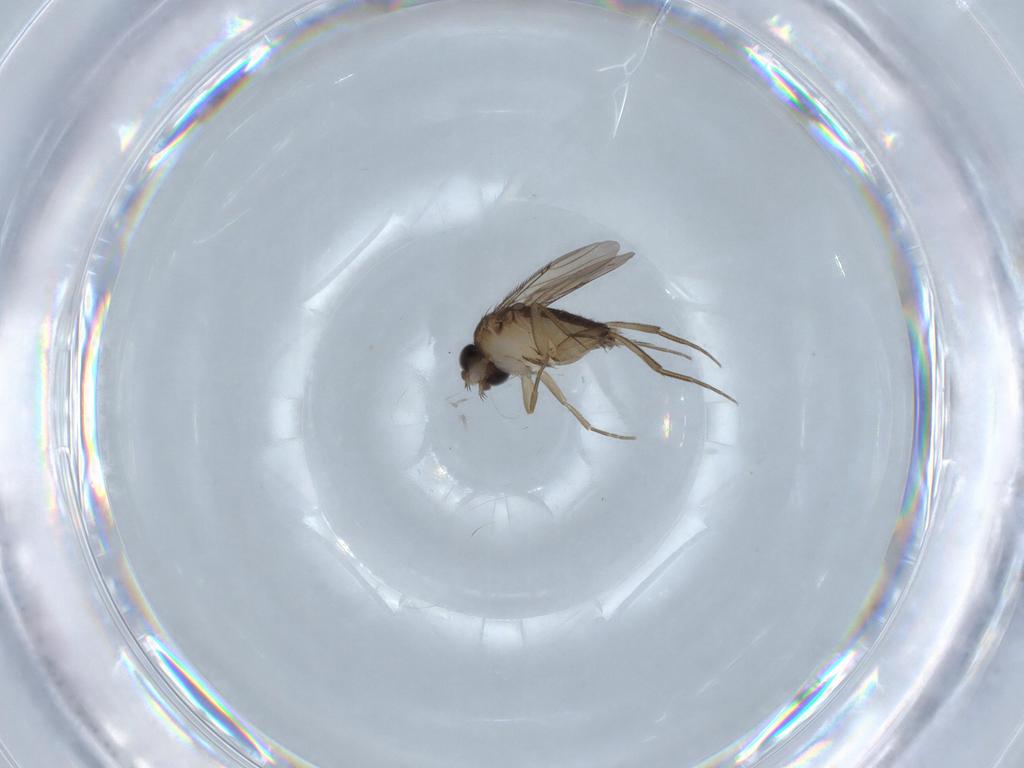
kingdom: Animalia
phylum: Arthropoda
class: Insecta
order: Diptera
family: Phoridae
